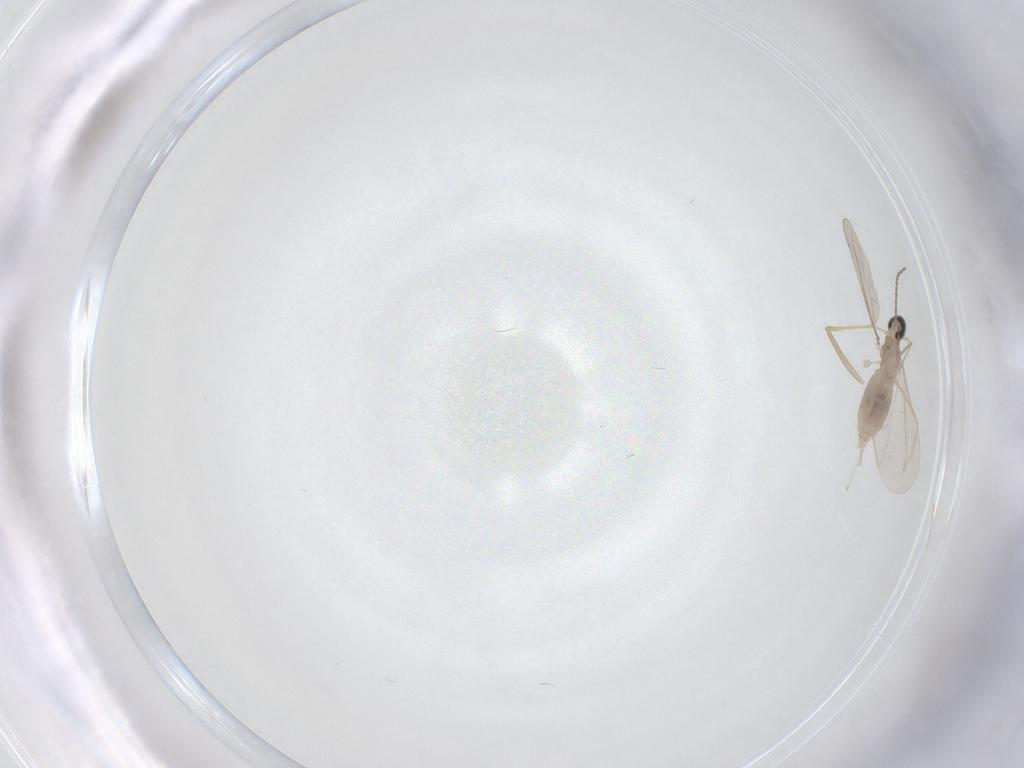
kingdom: Animalia
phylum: Arthropoda
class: Insecta
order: Diptera
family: Cecidomyiidae
